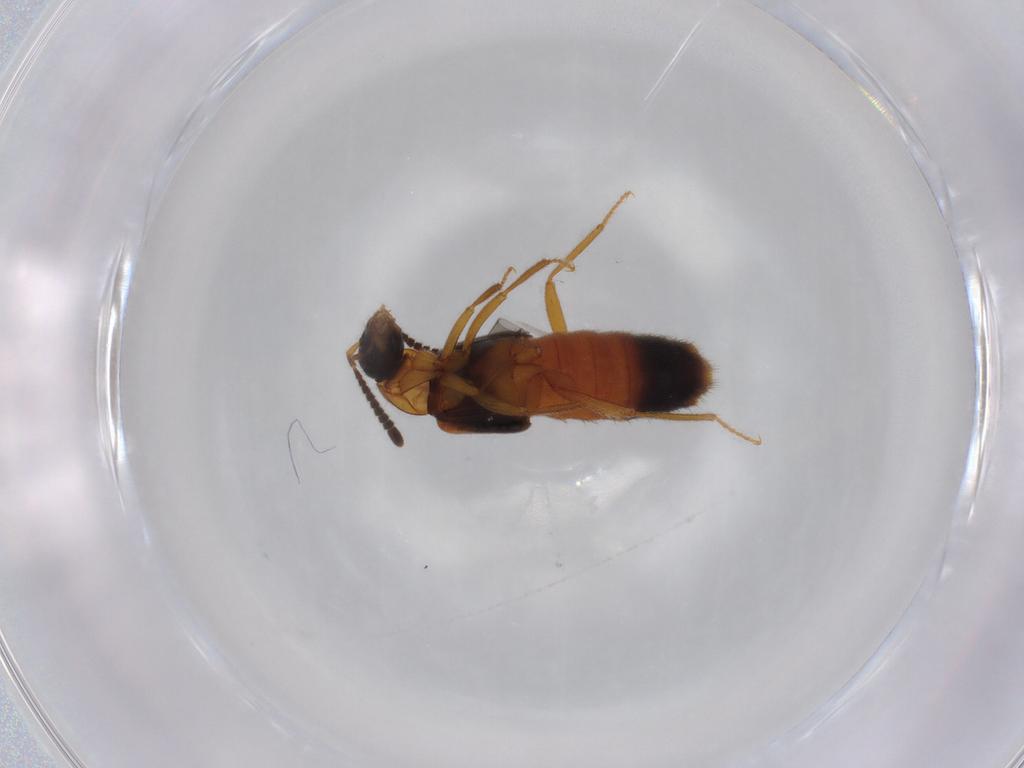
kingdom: Animalia
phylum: Arthropoda
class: Insecta
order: Coleoptera
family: Staphylinidae
